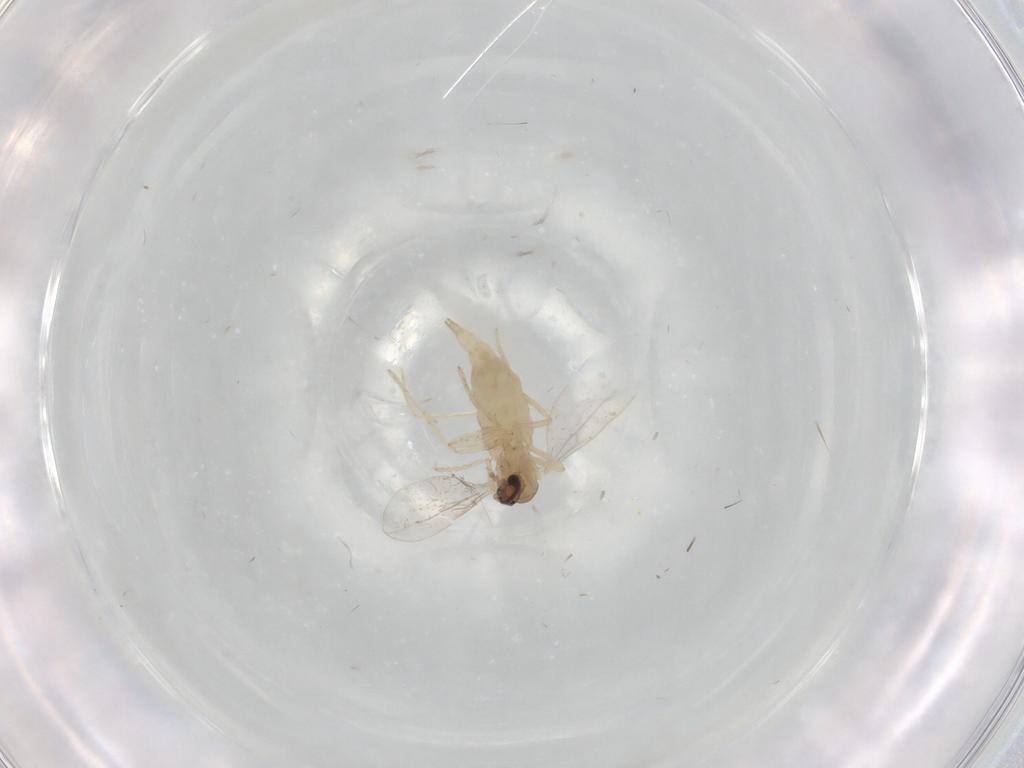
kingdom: Animalia
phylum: Arthropoda
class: Insecta
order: Diptera
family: Cecidomyiidae
